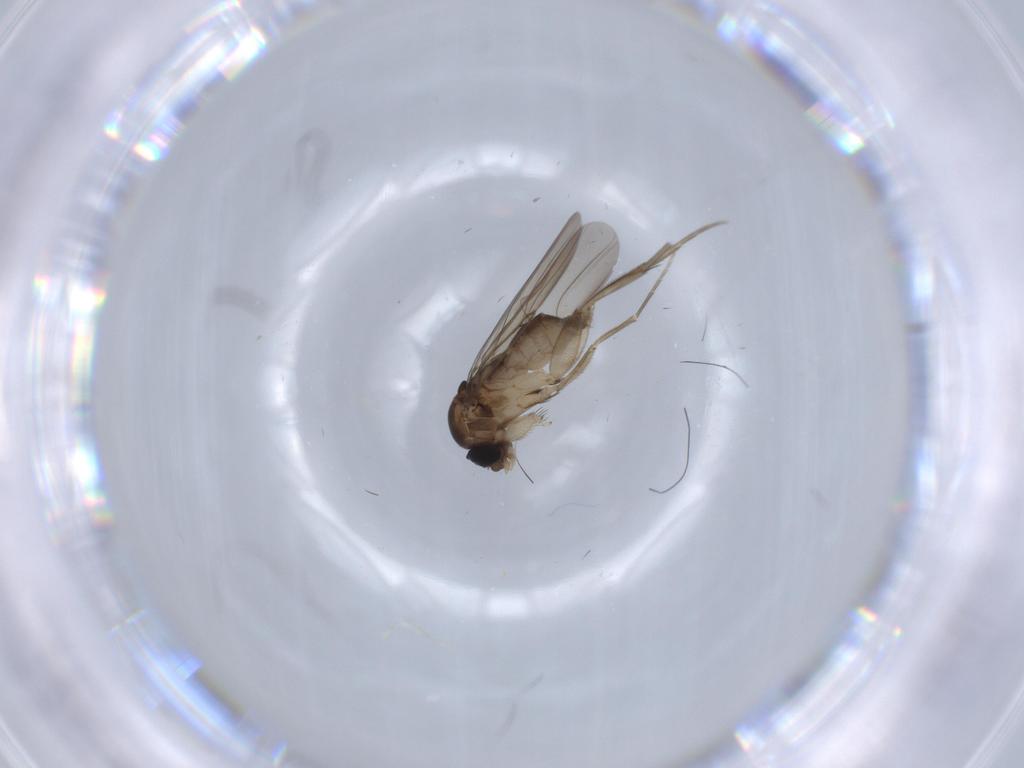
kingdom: Animalia
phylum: Arthropoda
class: Insecta
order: Diptera
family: Phoridae
